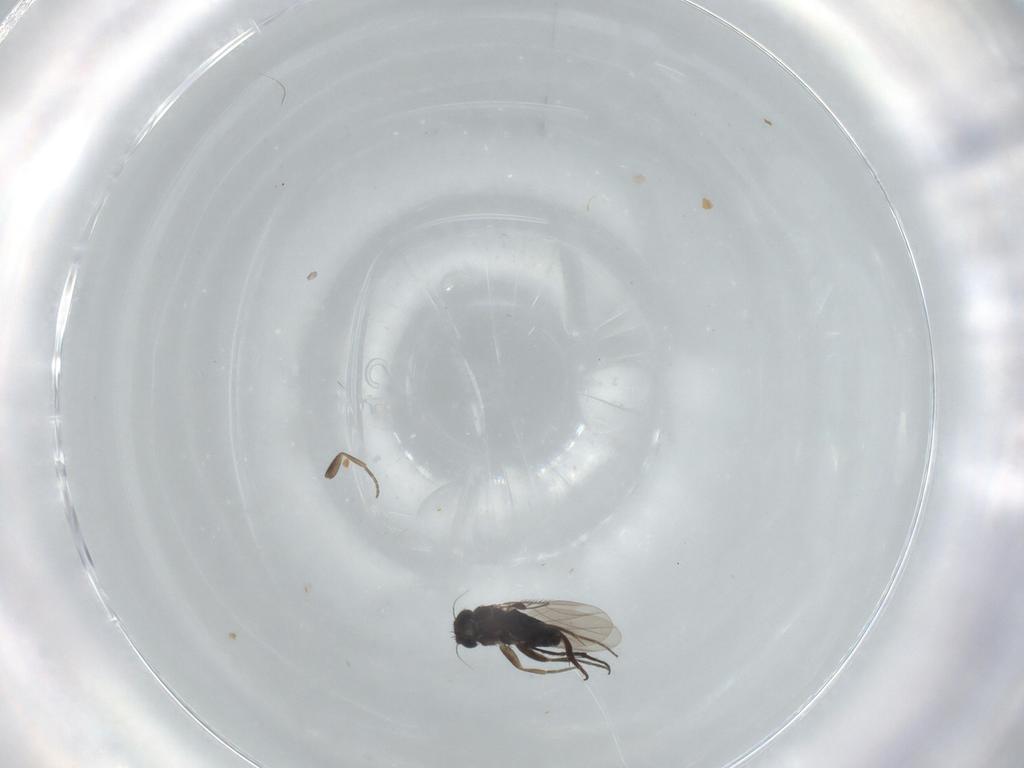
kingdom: Animalia
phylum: Arthropoda
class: Insecta
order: Diptera
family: Phoridae
